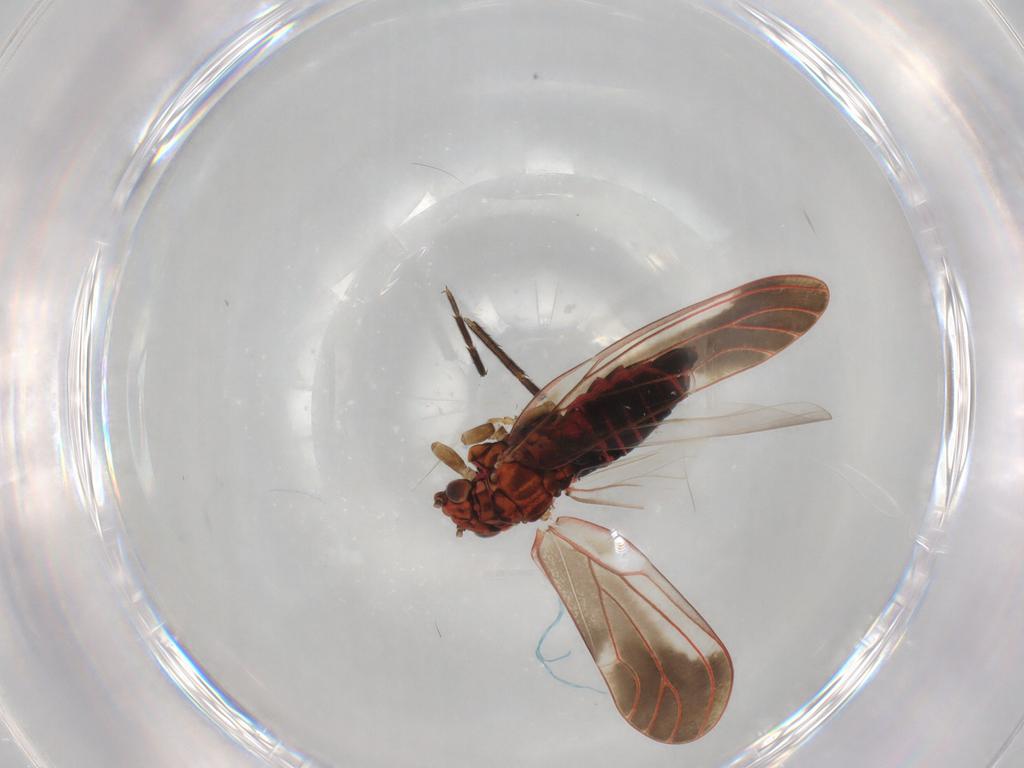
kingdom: Animalia
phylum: Arthropoda
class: Insecta
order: Hemiptera
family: Aphalaridae
